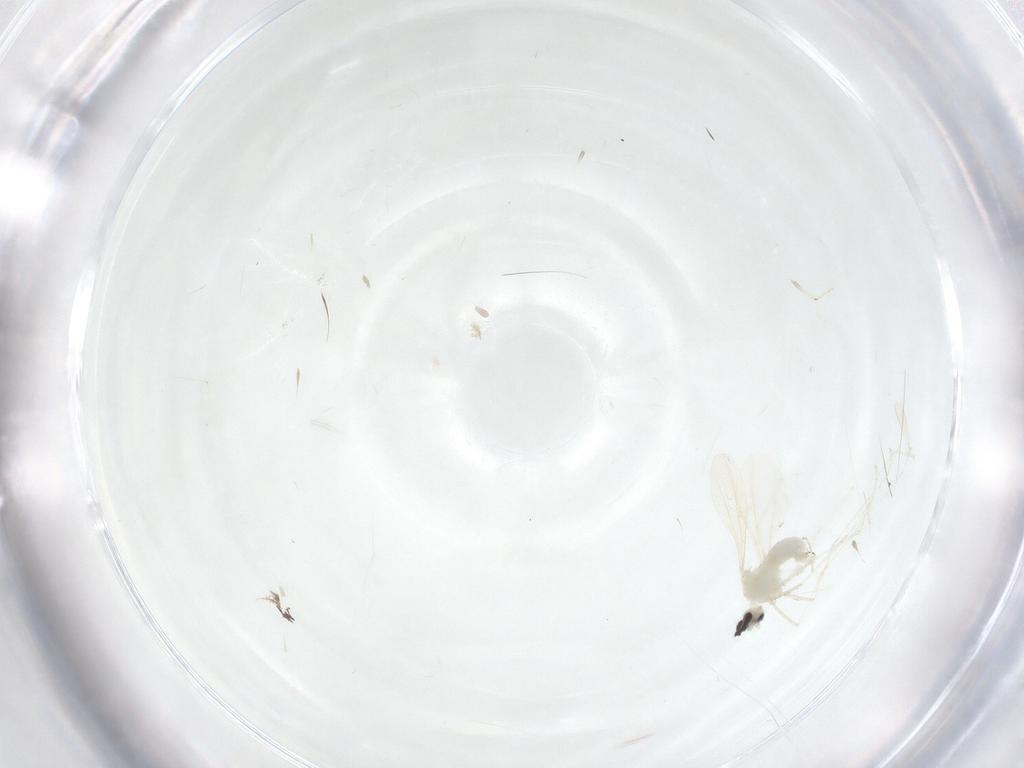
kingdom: Animalia
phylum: Arthropoda
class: Insecta
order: Diptera
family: Chironomidae
